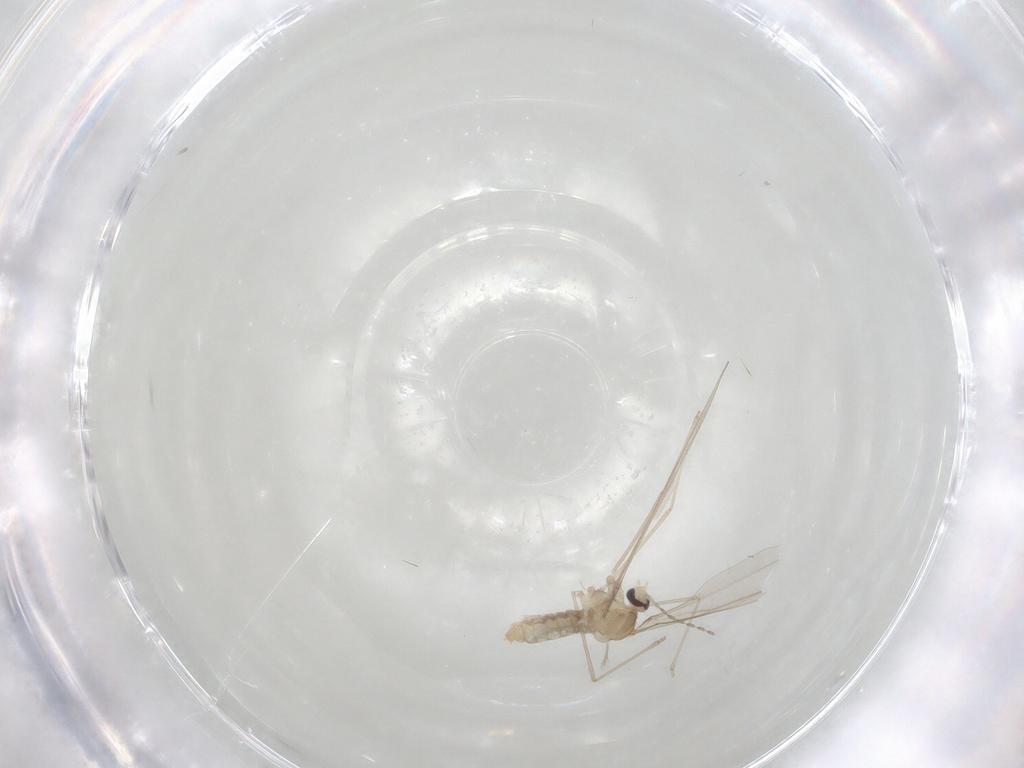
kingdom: Animalia
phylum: Arthropoda
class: Insecta
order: Diptera
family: Cecidomyiidae
